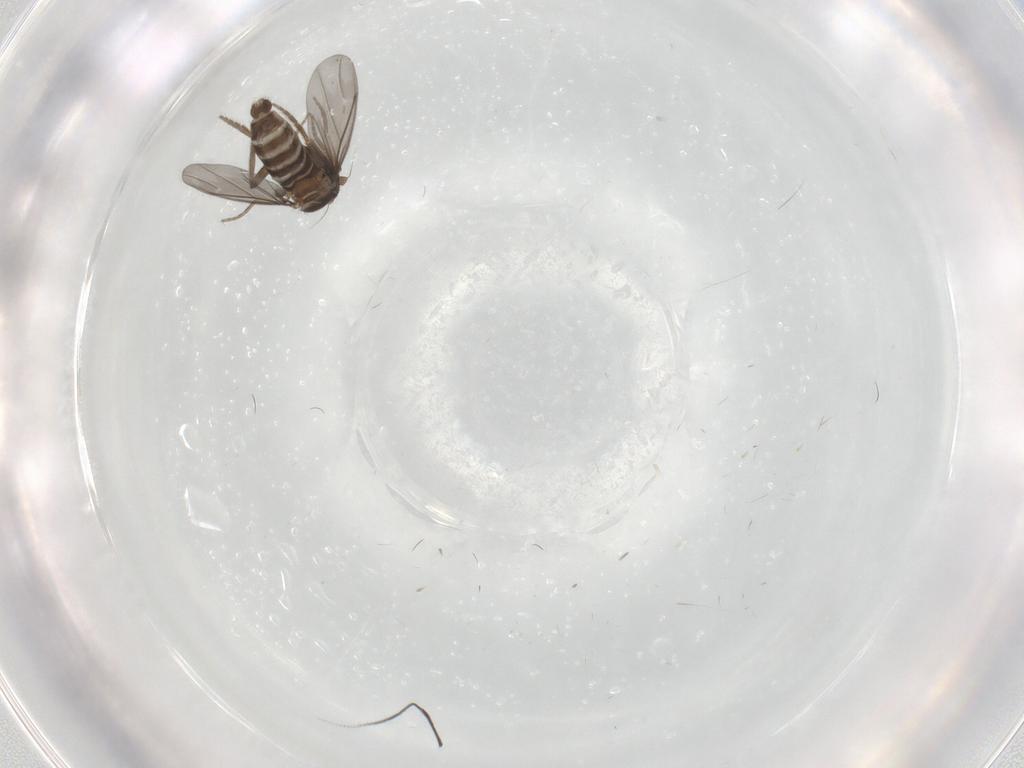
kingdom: Animalia
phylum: Arthropoda
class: Insecta
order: Diptera
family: Phoridae
